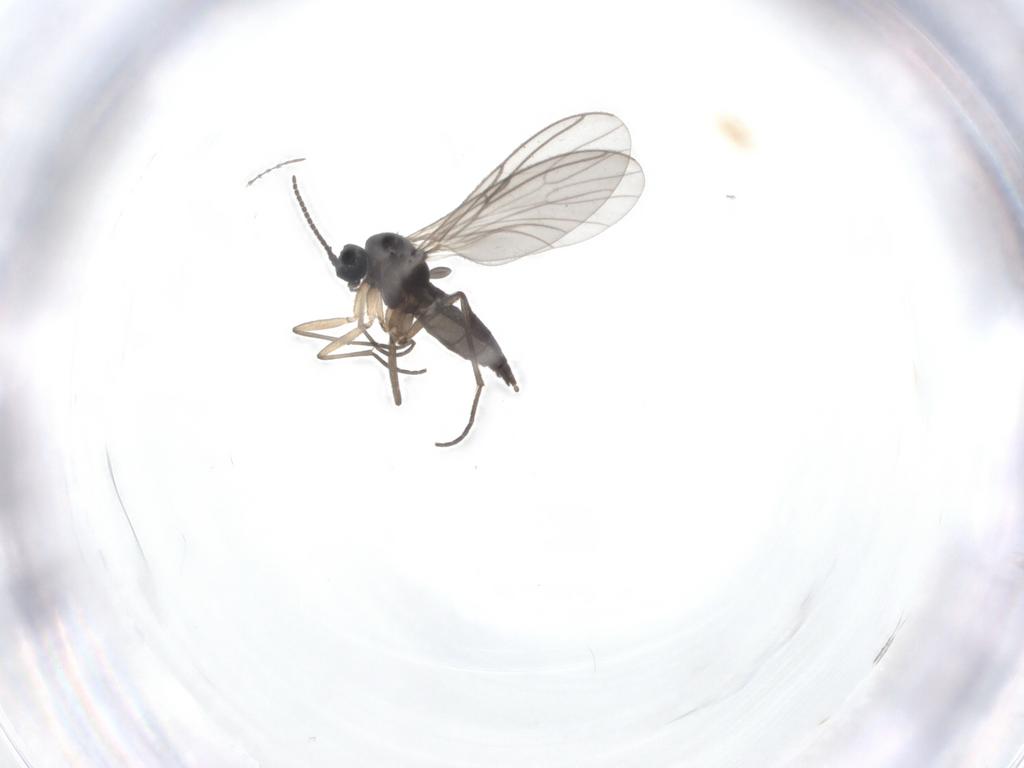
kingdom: Animalia
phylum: Arthropoda
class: Insecta
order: Diptera
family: Sciaridae
